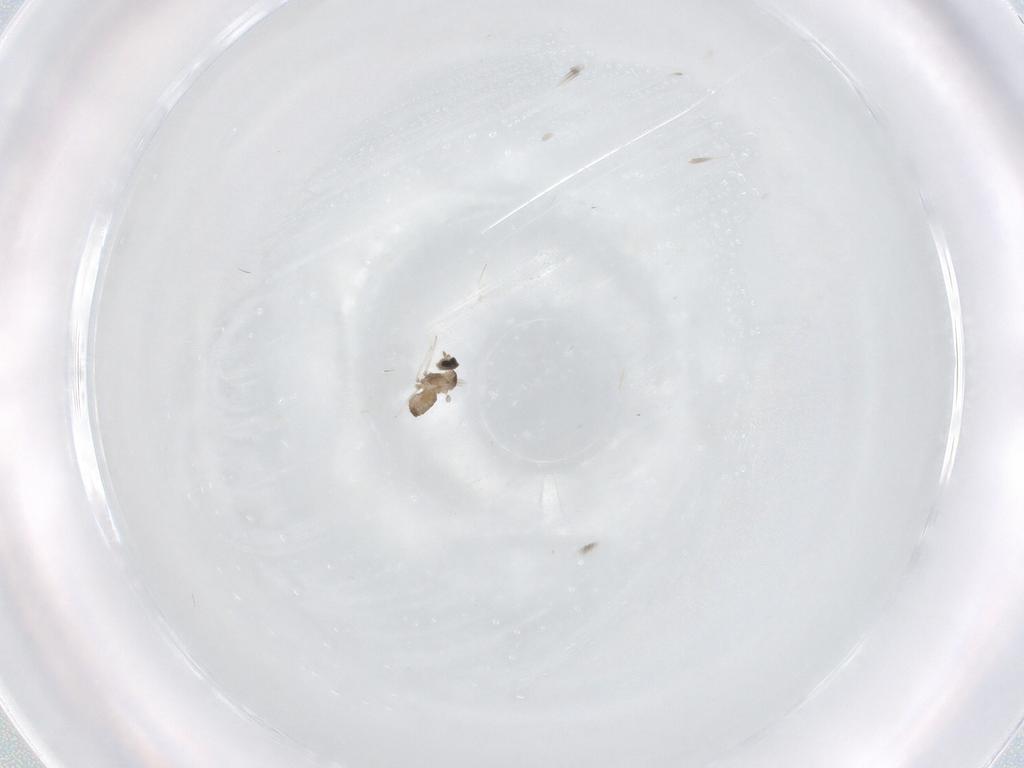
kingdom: Animalia
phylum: Arthropoda
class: Insecta
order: Diptera
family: Cecidomyiidae
